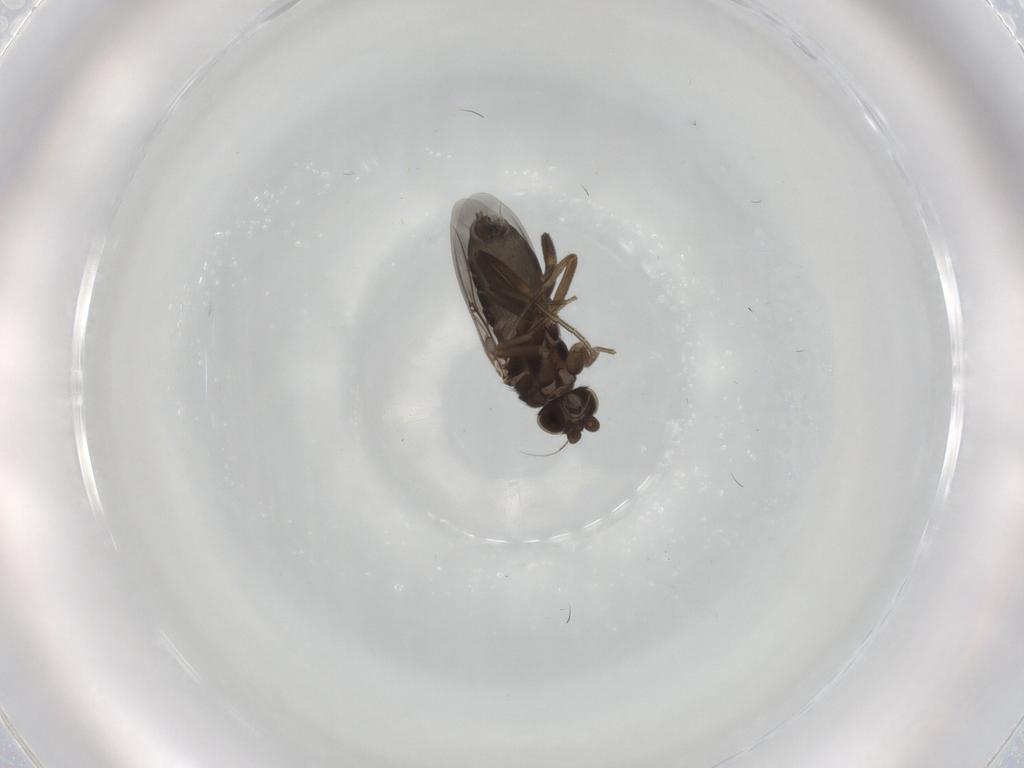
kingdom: Animalia
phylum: Arthropoda
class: Insecta
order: Diptera
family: Phoridae
